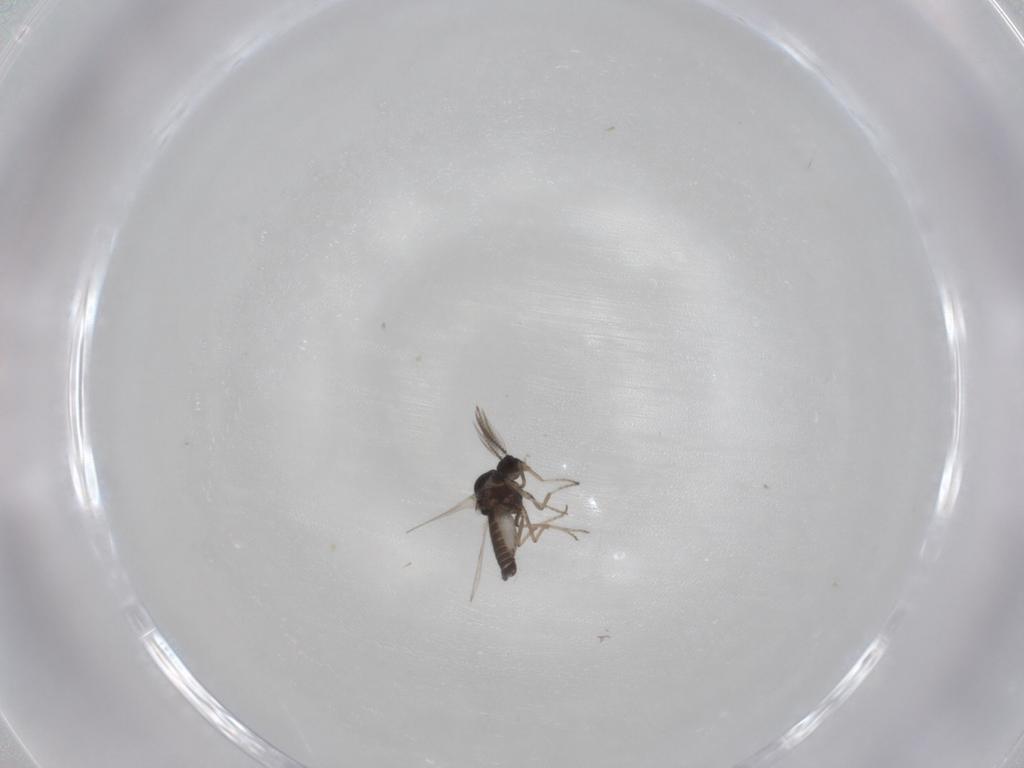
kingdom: Animalia
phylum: Arthropoda
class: Insecta
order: Diptera
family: Ceratopogonidae
